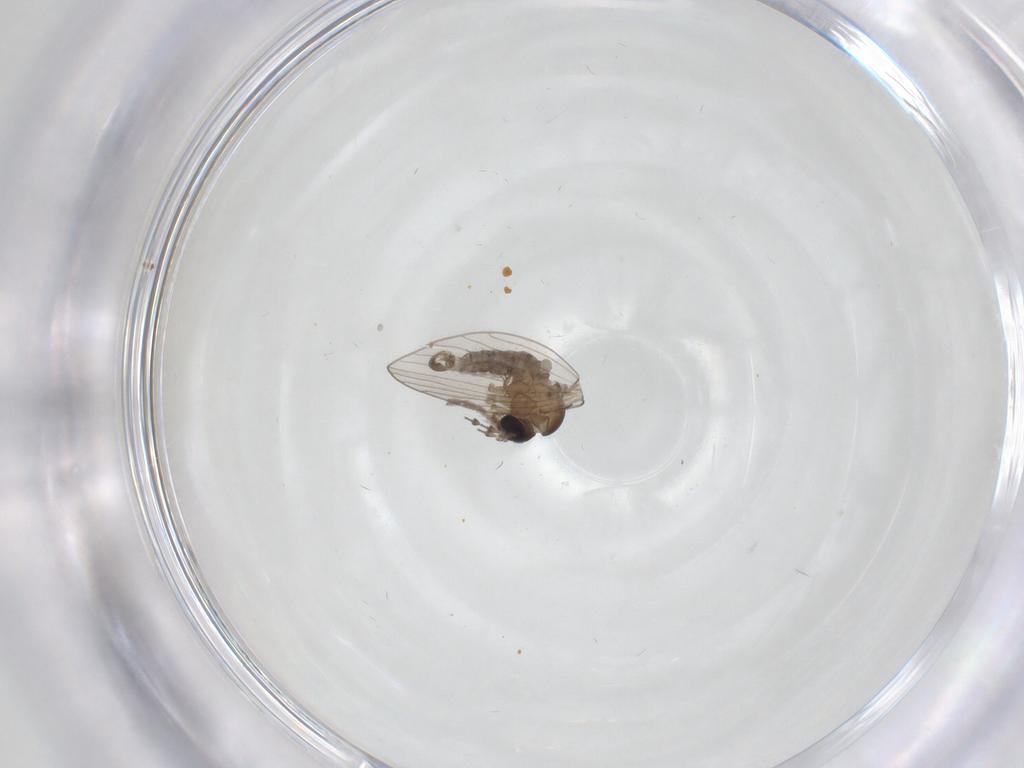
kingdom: Animalia
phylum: Arthropoda
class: Insecta
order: Diptera
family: Psychodidae
